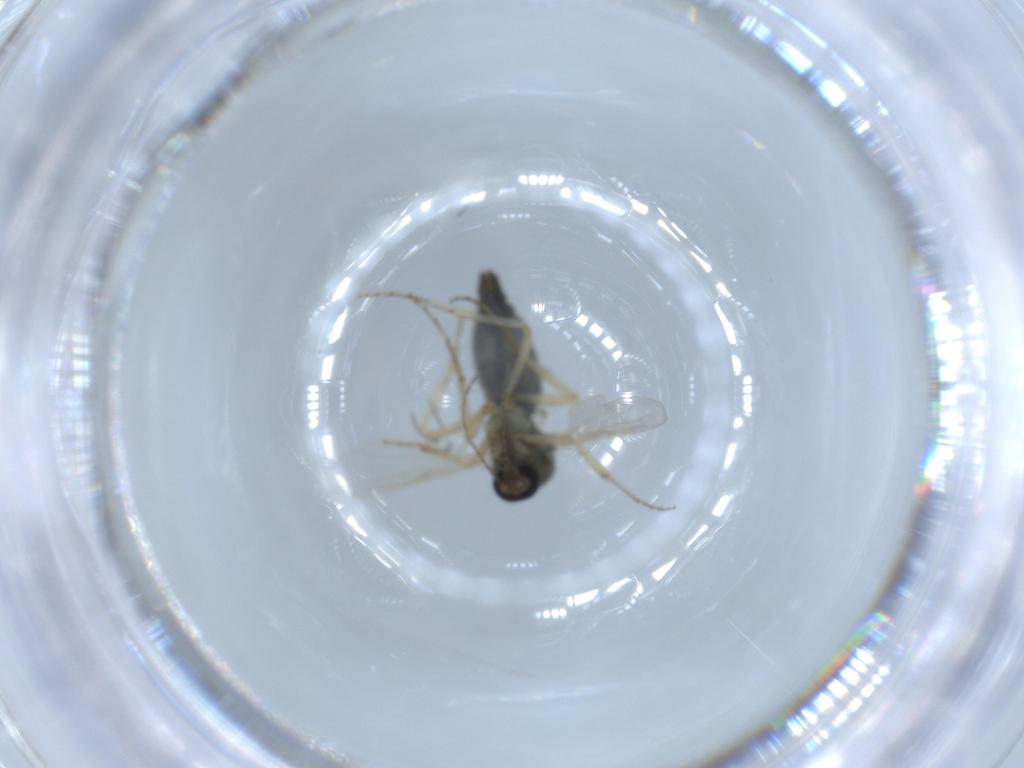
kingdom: Animalia
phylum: Arthropoda
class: Insecta
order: Diptera
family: Drosophilidae
